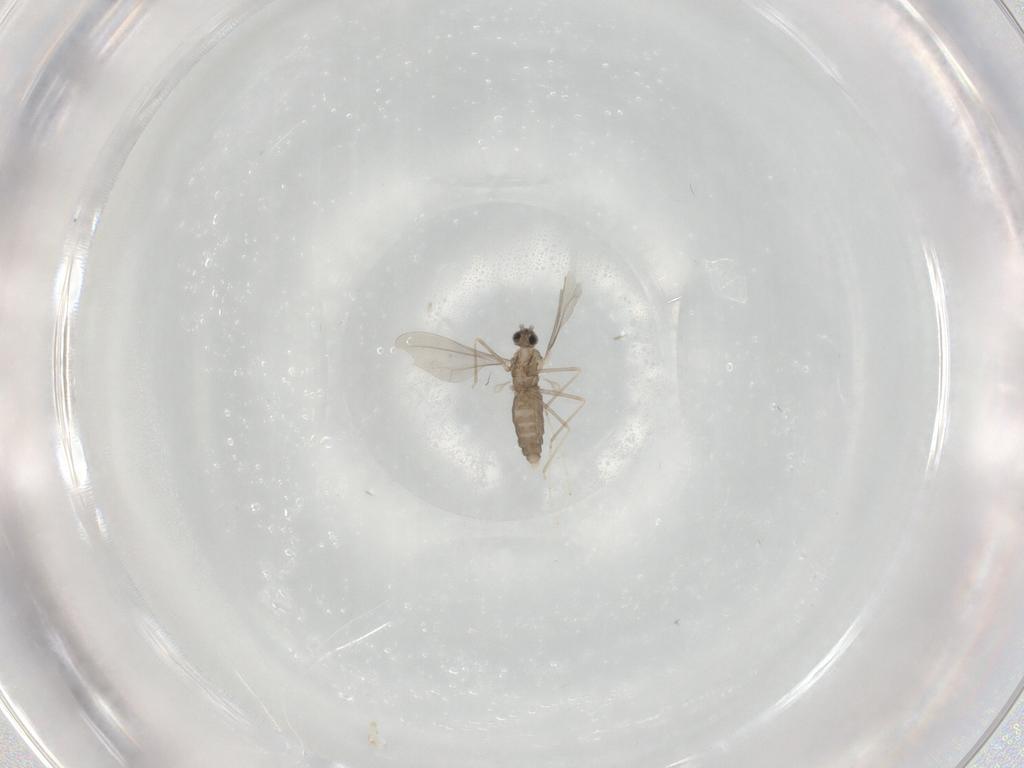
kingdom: Animalia
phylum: Arthropoda
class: Insecta
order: Diptera
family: Cecidomyiidae
